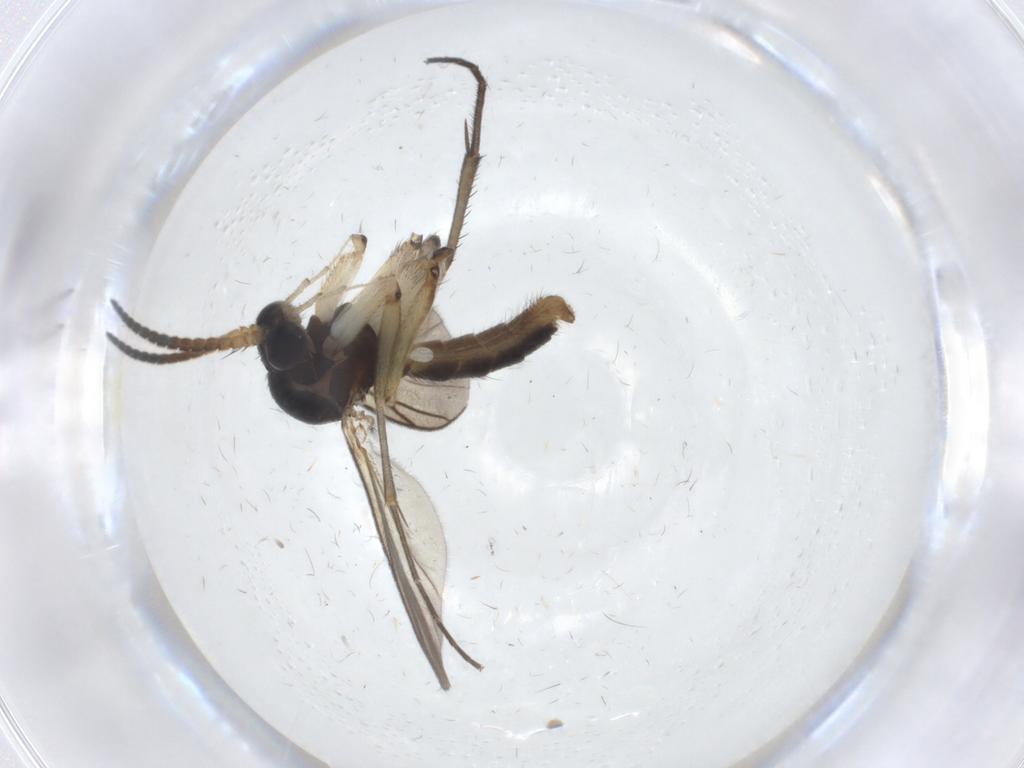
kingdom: Animalia
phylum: Arthropoda
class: Insecta
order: Diptera
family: Mycetophilidae
